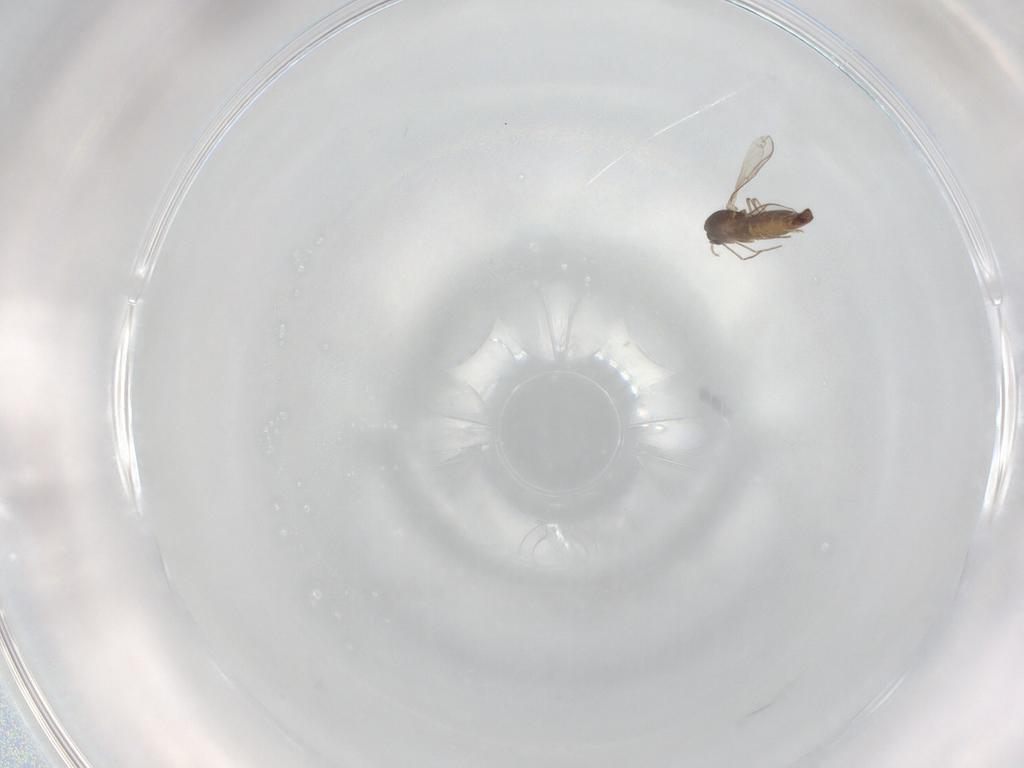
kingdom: Animalia
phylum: Arthropoda
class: Insecta
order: Diptera
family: Chironomidae
